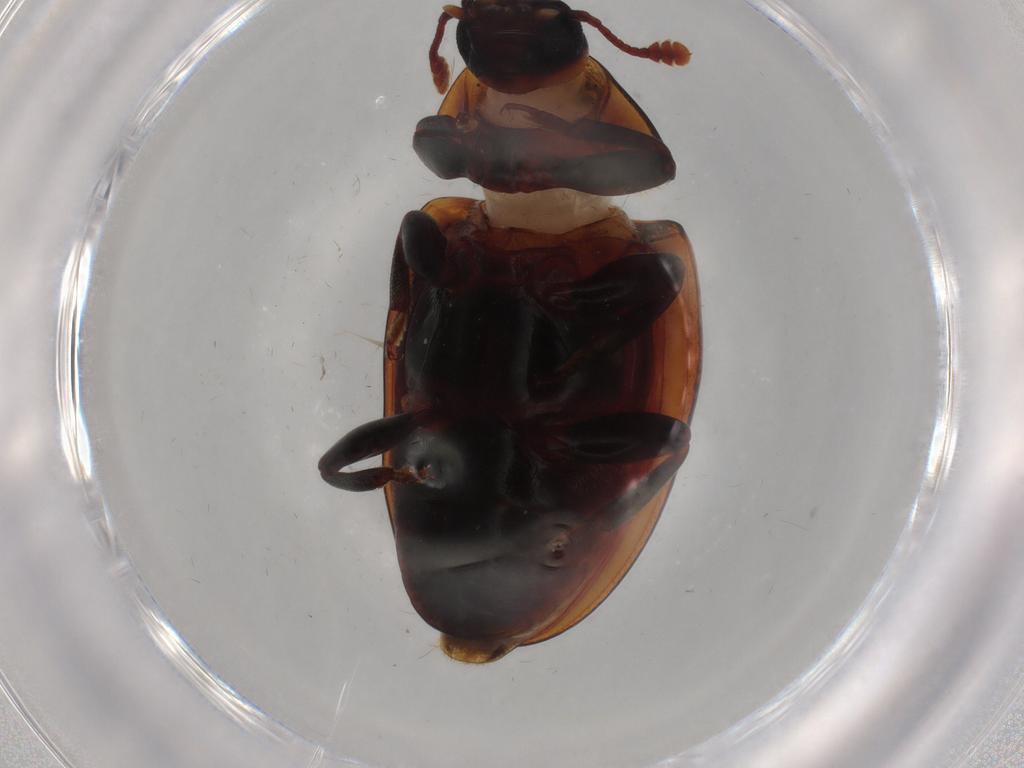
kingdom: Animalia
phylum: Arthropoda
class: Insecta
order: Coleoptera
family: Zopheridae
